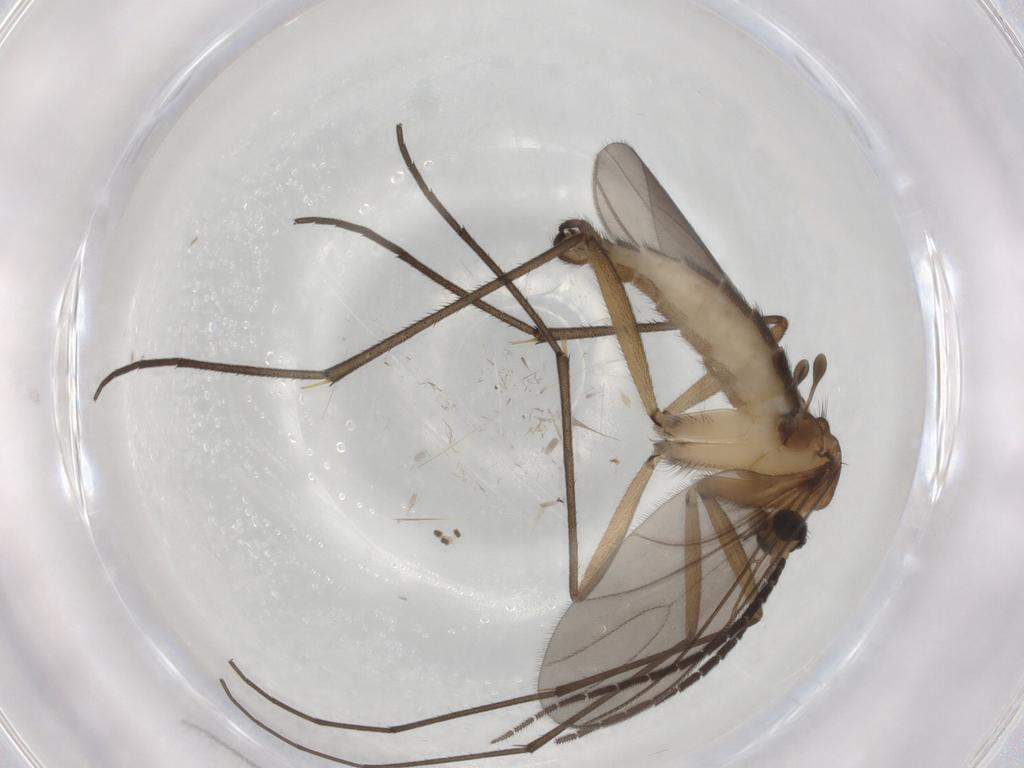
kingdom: Animalia
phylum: Arthropoda
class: Insecta
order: Diptera
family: Sciaridae
